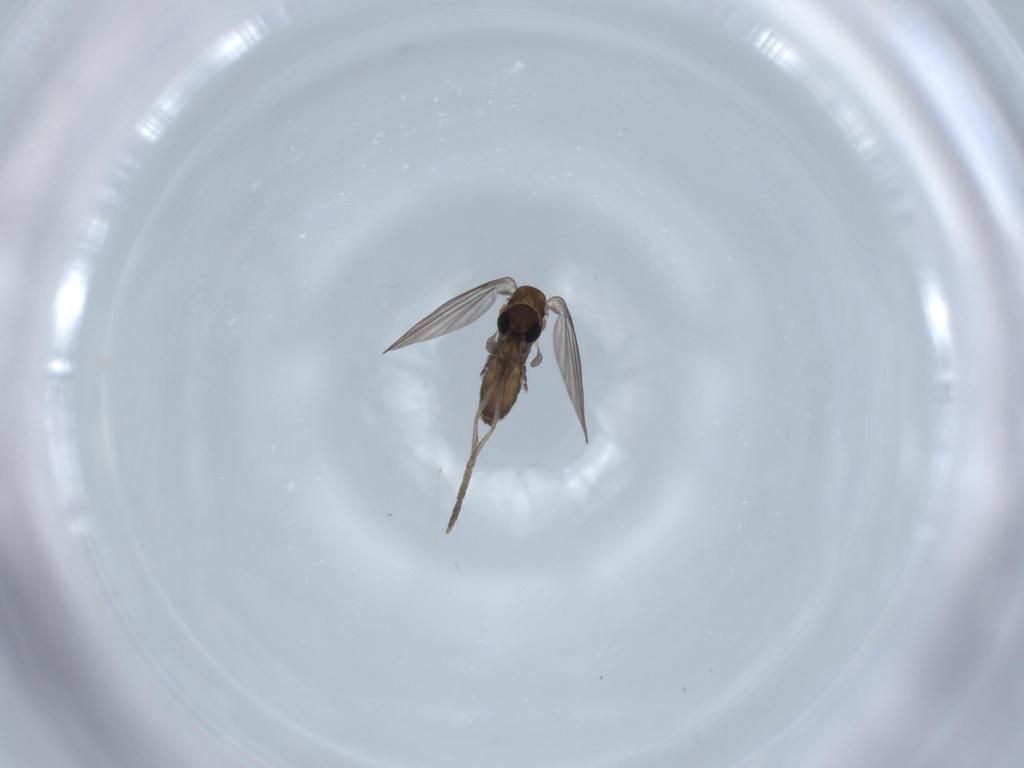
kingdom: Animalia
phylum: Arthropoda
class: Insecta
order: Diptera
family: Psychodidae
